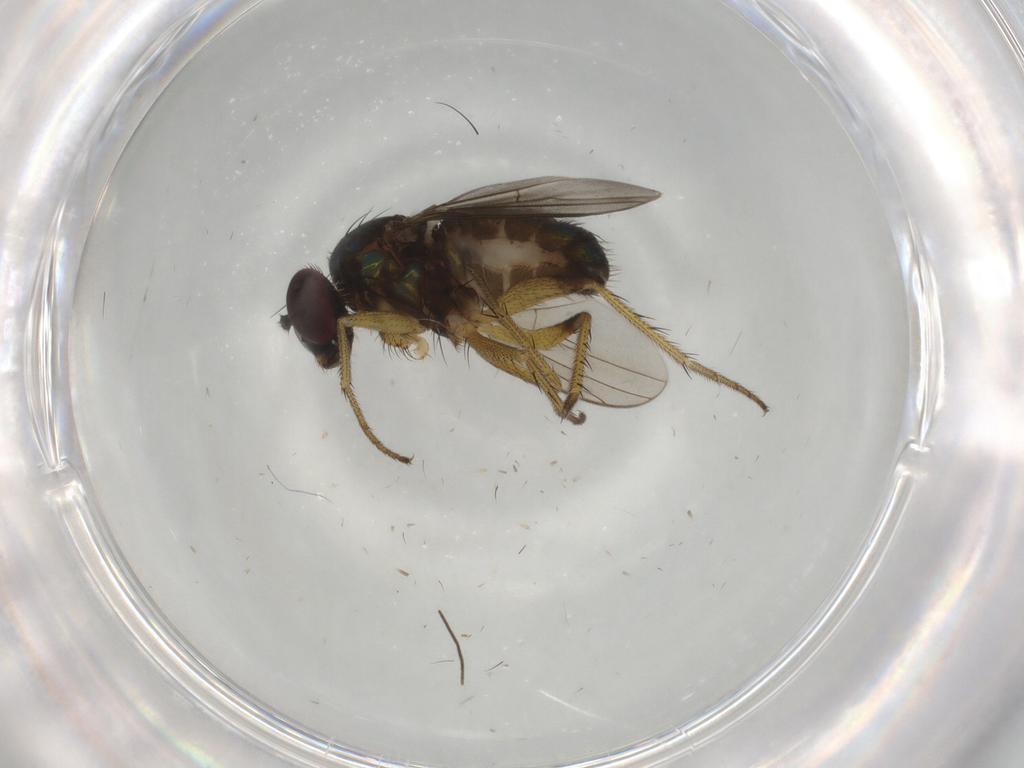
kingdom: Animalia
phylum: Arthropoda
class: Insecta
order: Diptera
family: Dolichopodidae
